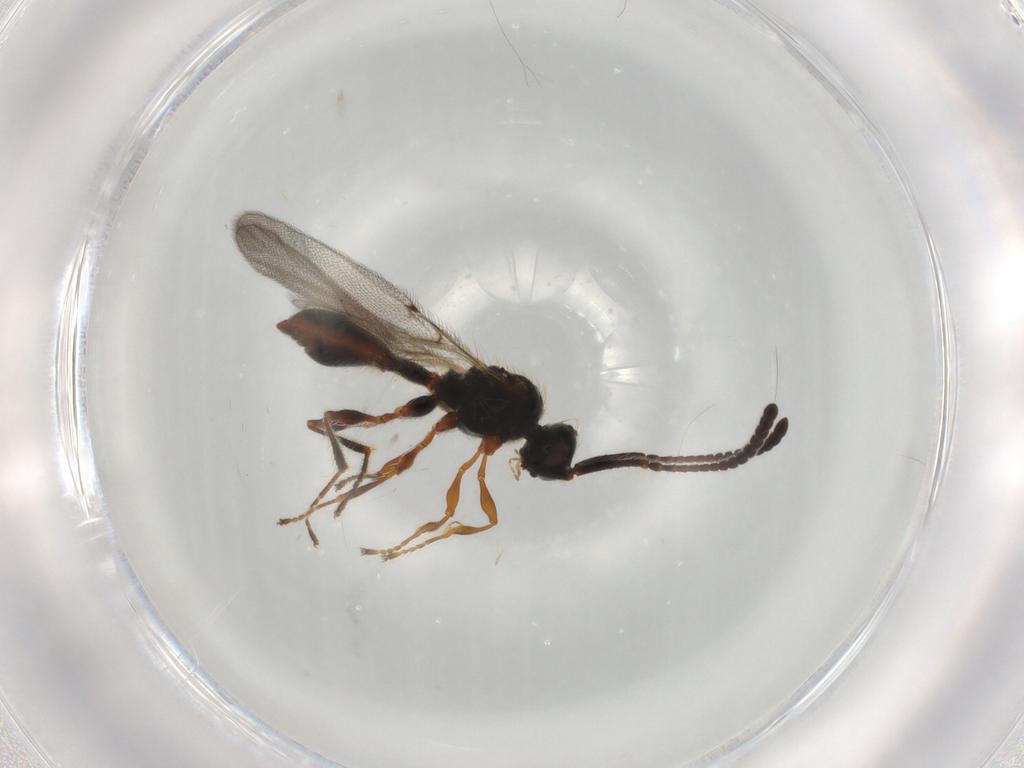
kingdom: Animalia
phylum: Arthropoda
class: Insecta
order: Hymenoptera
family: Diapriidae
